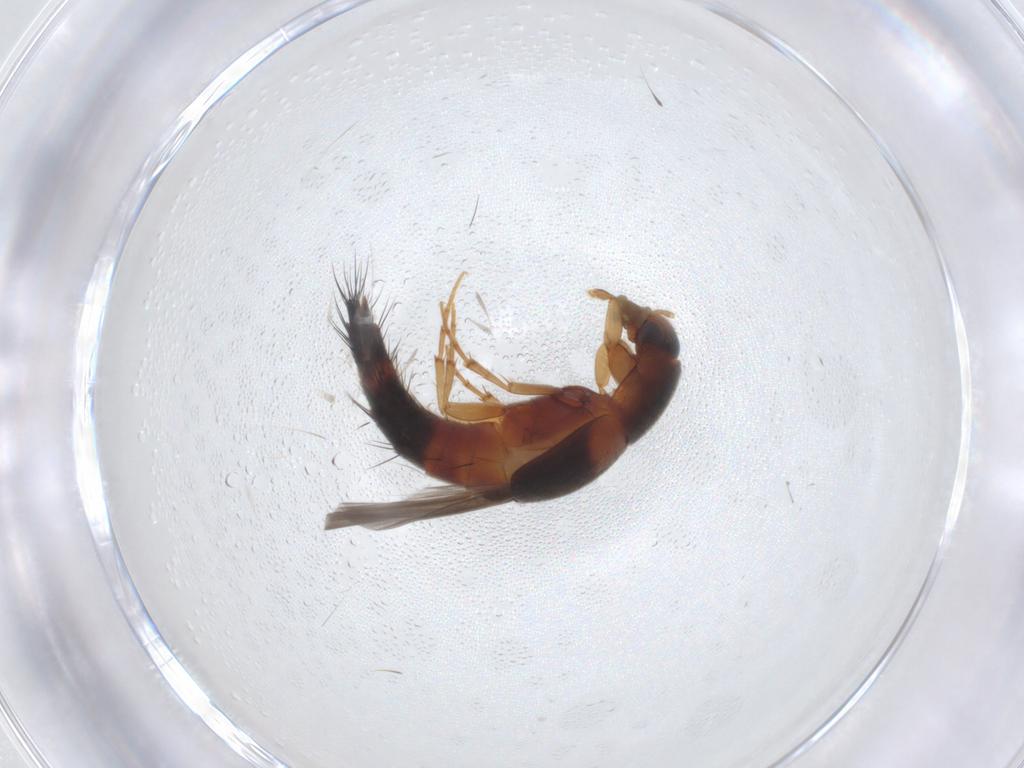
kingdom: Animalia
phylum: Arthropoda
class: Insecta
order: Coleoptera
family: Staphylinidae
